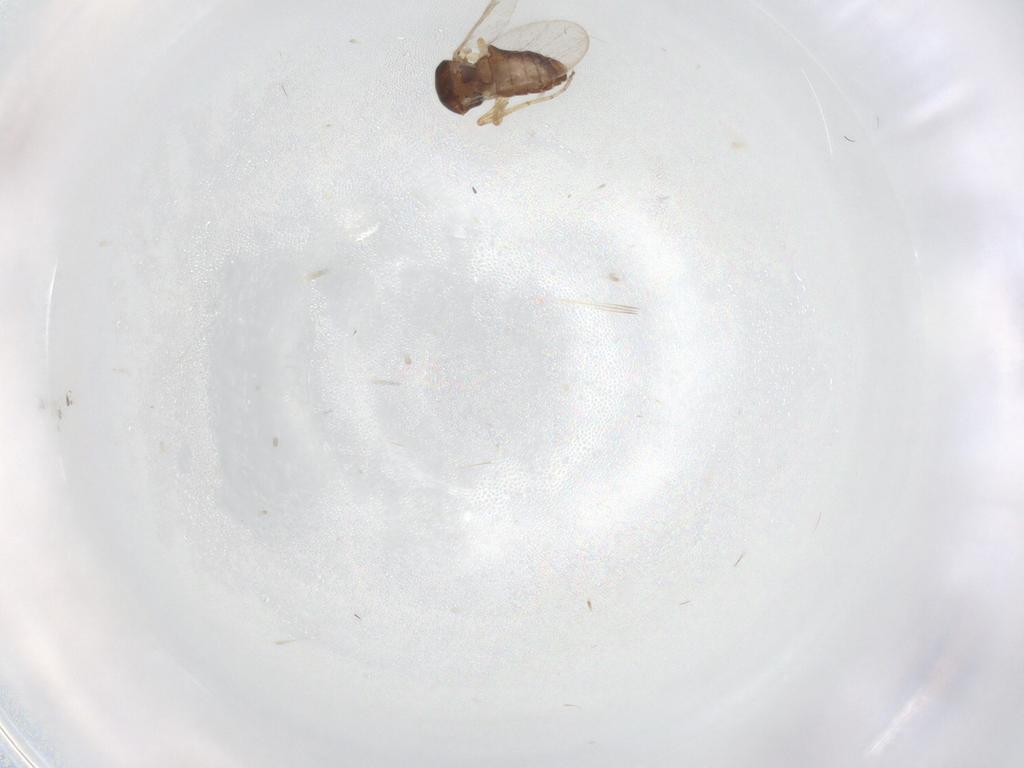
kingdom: Animalia
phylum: Arthropoda
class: Insecta
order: Diptera
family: Ceratopogonidae
